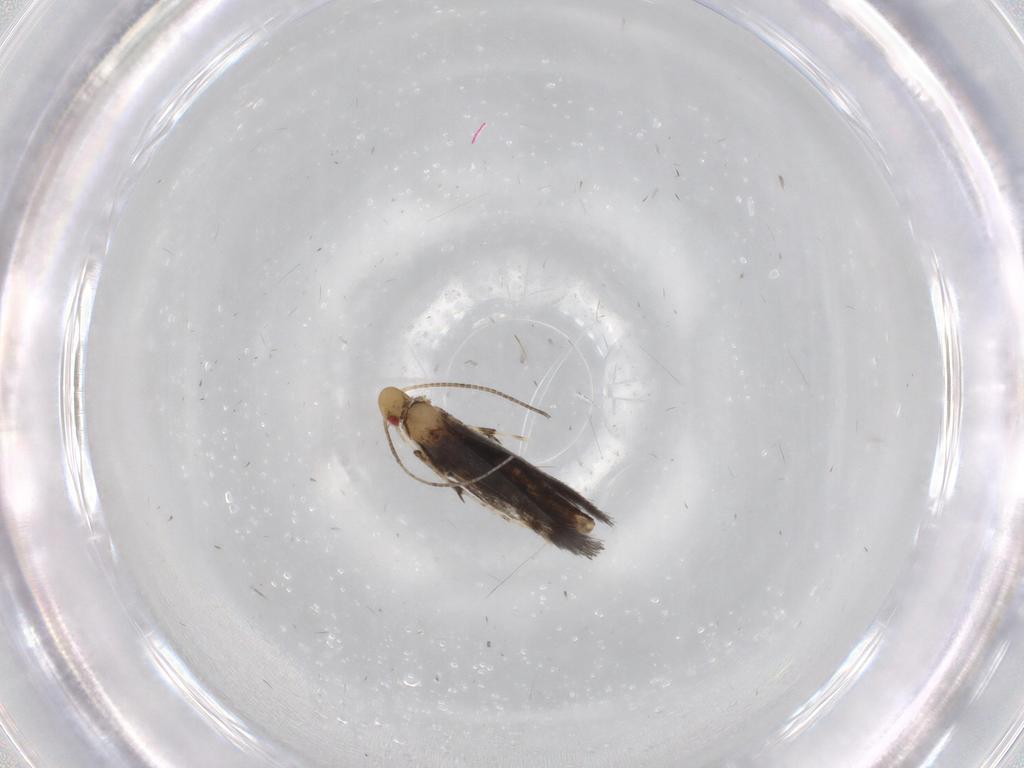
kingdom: Animalia
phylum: Arthropoda
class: Insecta
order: Lepidoptera
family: Gracillariidae
